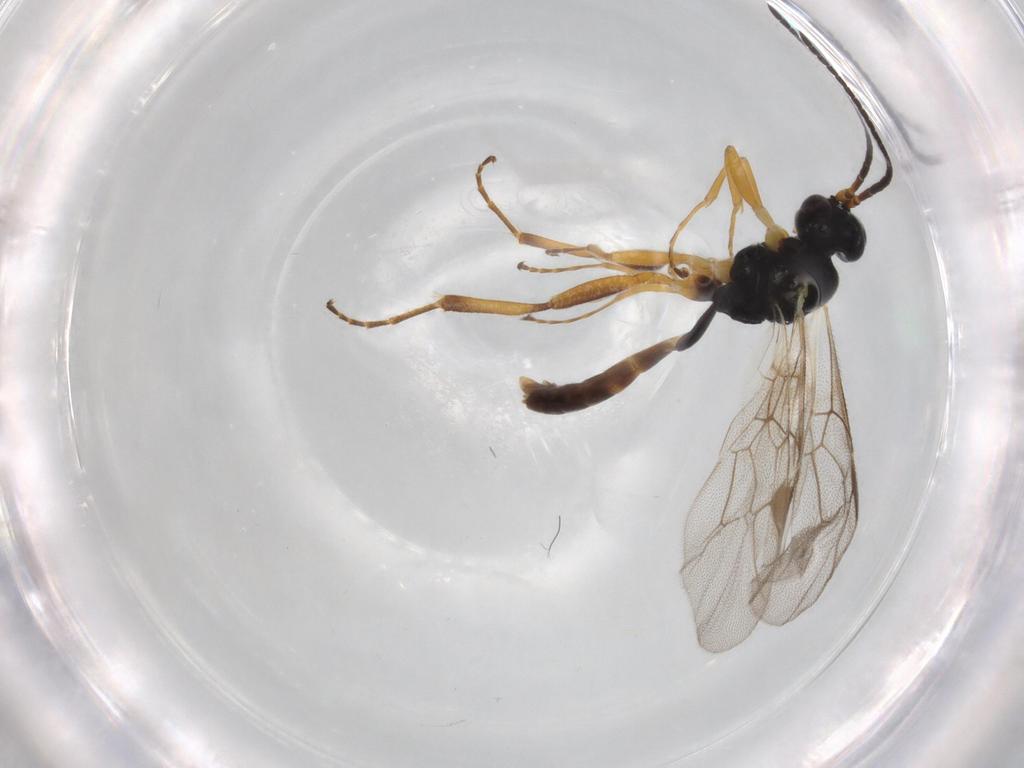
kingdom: Animalia
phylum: Arthropoda
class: Insecta
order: Hymenoptera
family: Ichneumonidae
